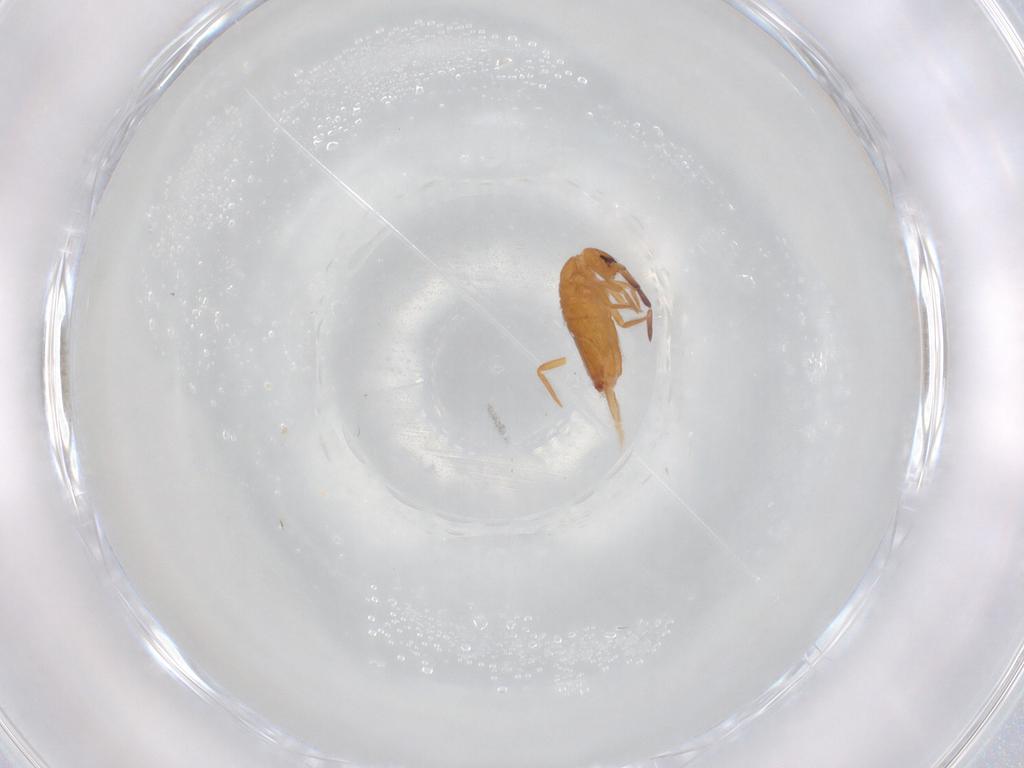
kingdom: Animalia
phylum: Arthropoda
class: Collembola
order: Entomobryomorpha
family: Entomobryidae
